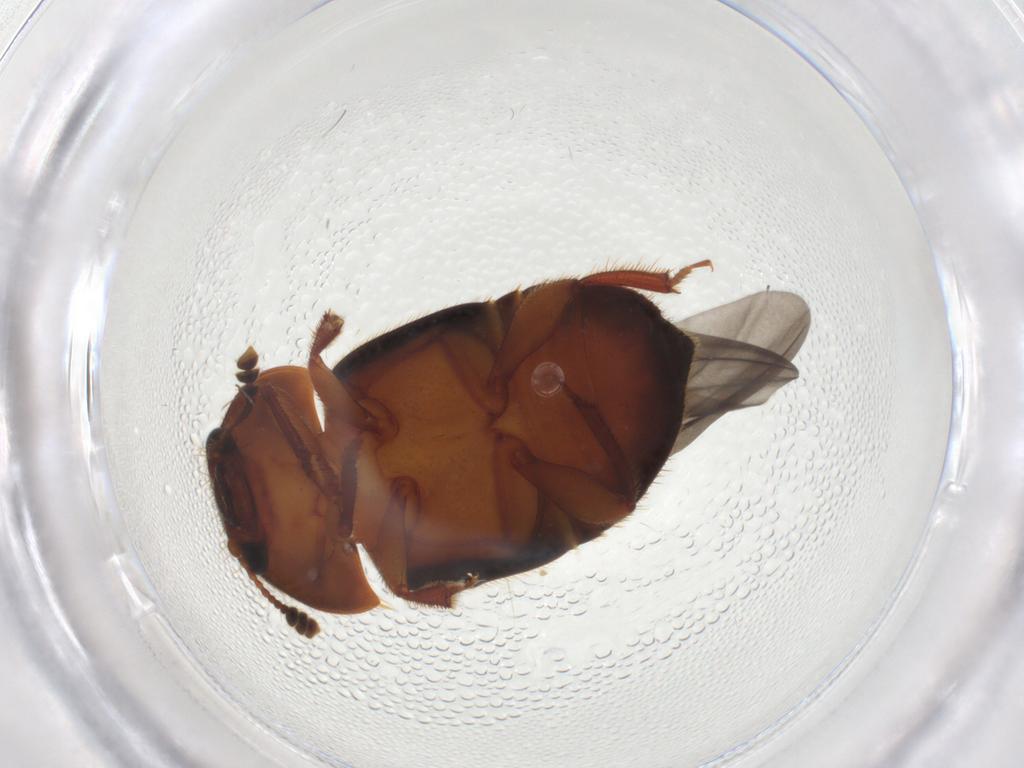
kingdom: Animalia
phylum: Arthropoda
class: Insecta
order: Coleoptera
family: Nitidulidae
